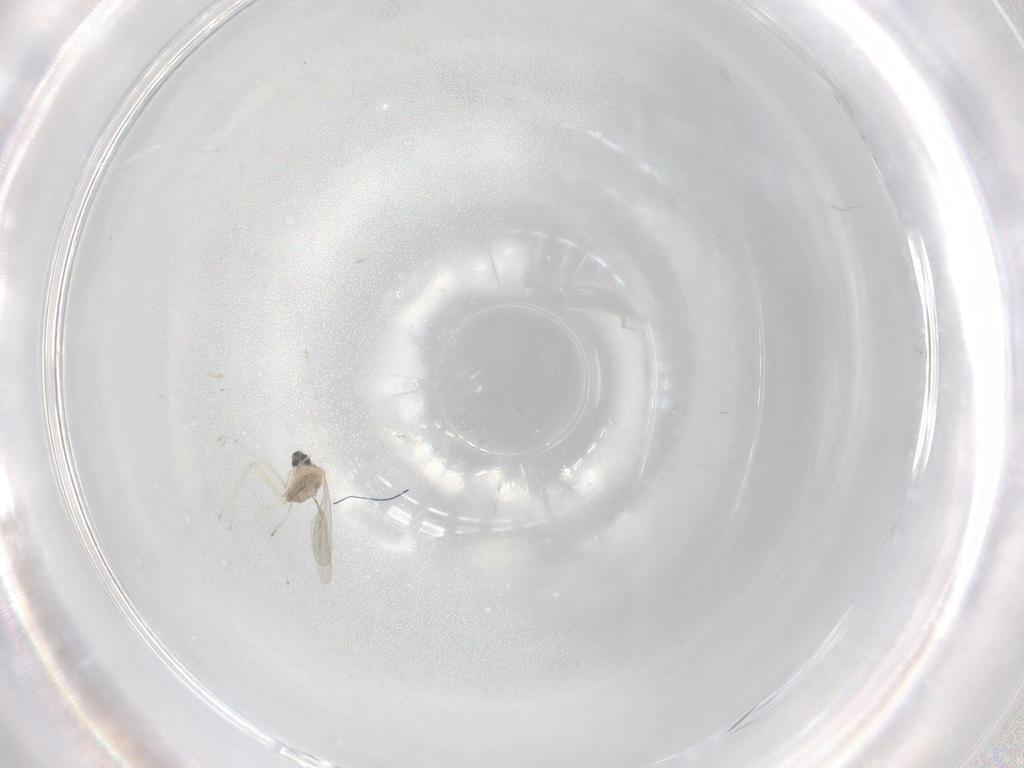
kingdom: Animalia
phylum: Arthropoda
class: Insecta
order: Diptera
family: Cecidomyiidae
